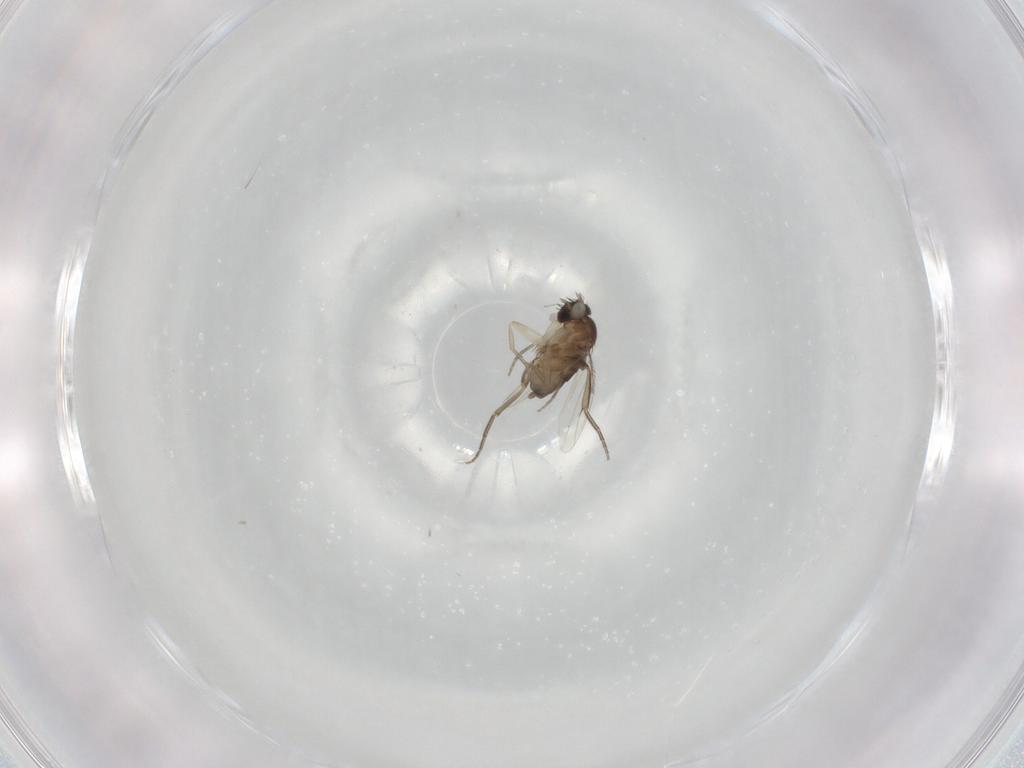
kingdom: Animalia
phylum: Arthropoda
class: Insecta
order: Diptera
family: Phoridae
